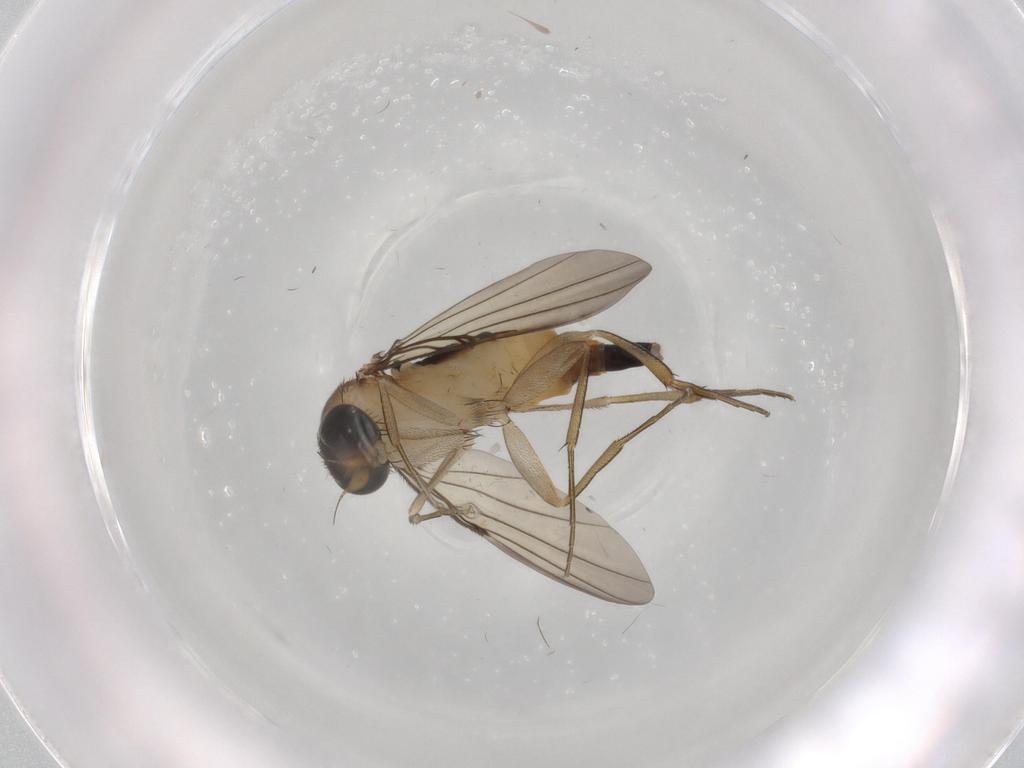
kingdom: Animalia
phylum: Arthropoda
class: Insecta
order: Diptera
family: Phoridae
